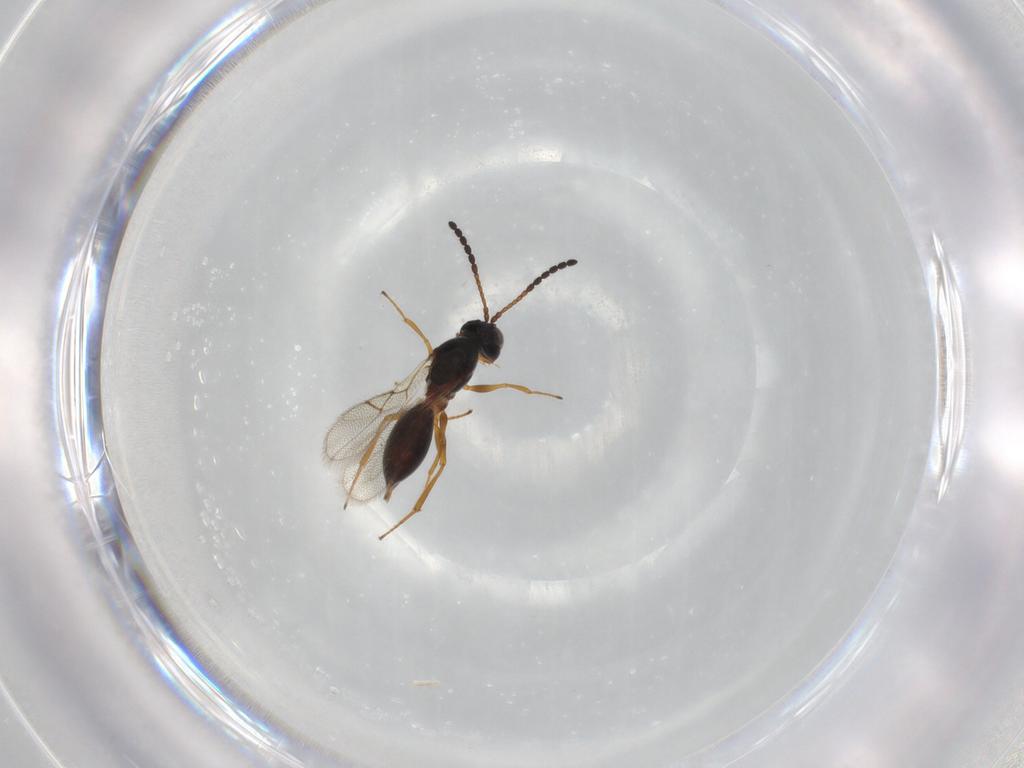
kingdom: Animalia
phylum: Arthropoda
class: Insecta
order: Hymenoptera
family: Figitidae
